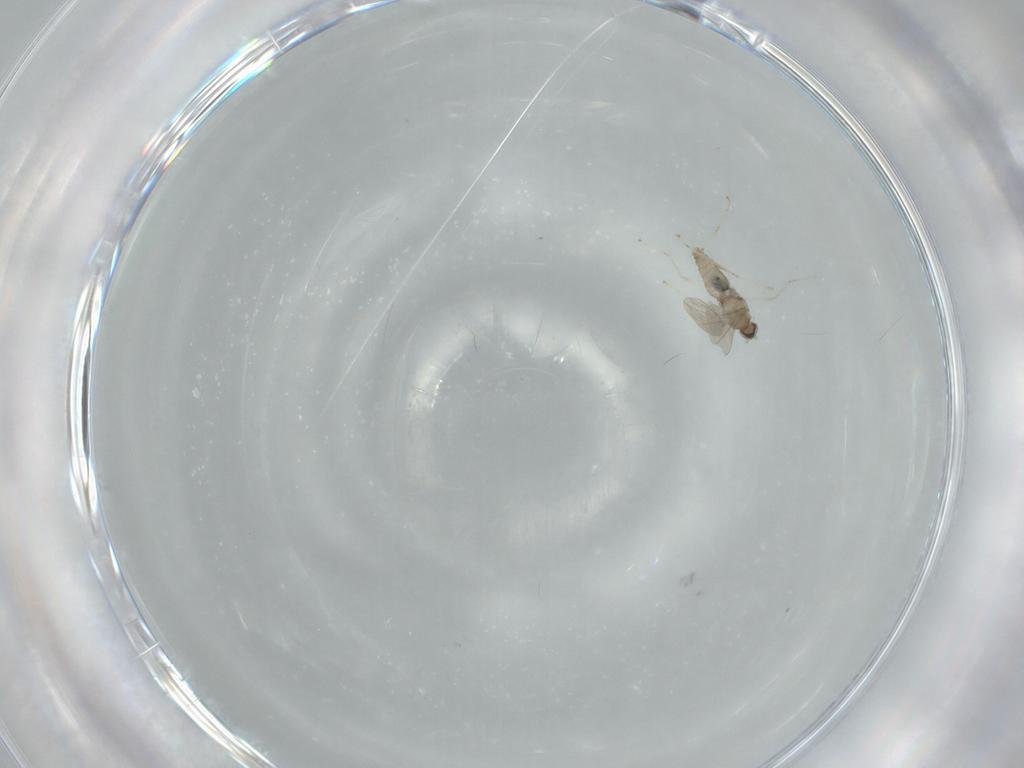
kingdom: Animalia
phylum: Arthropoda
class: Insecta
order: Diptera
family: Cecidomyiidae
